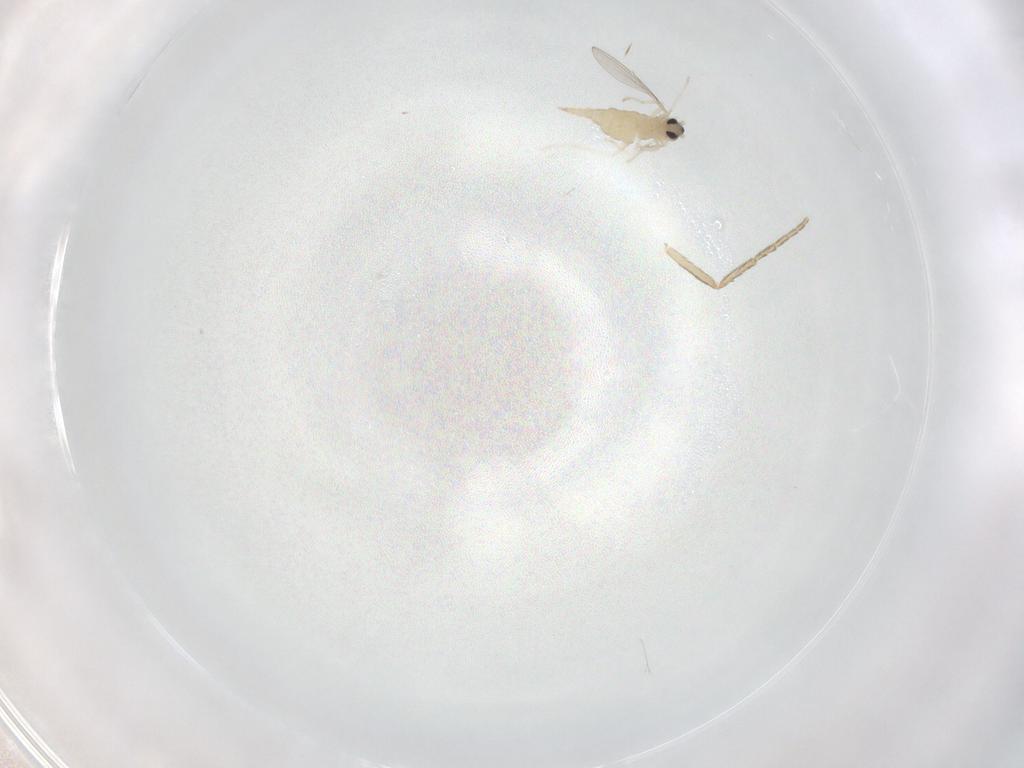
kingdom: Animalia
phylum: Arthropoda
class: Insecta
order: Diptera
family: Cecidomyiidae
